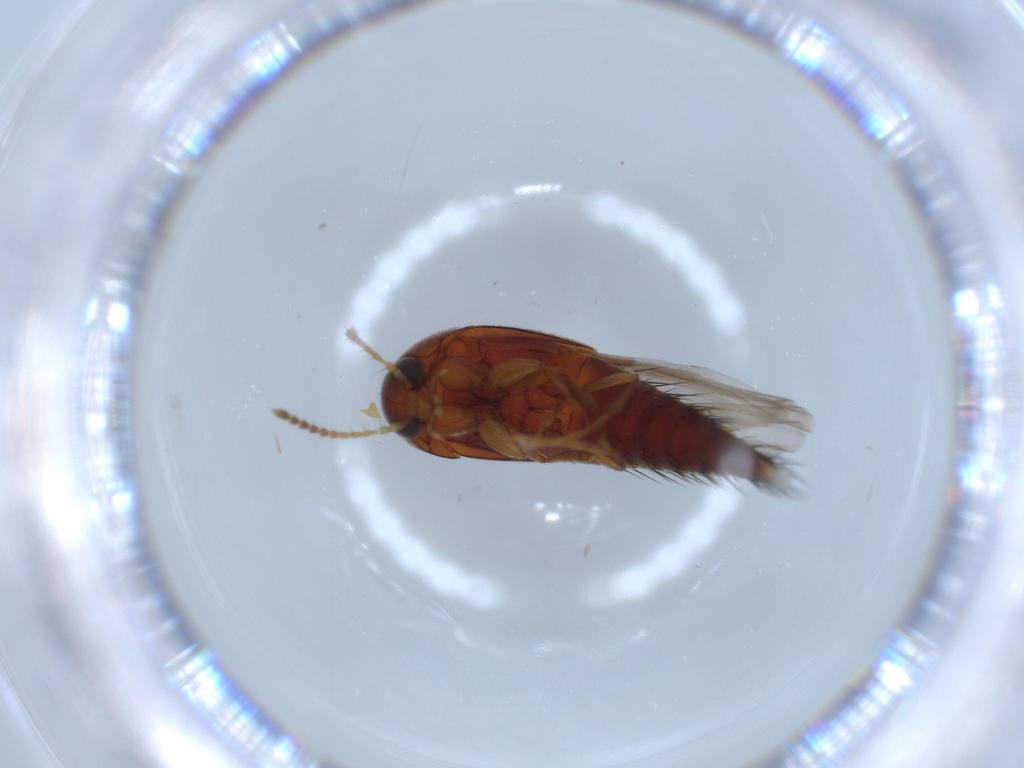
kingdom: Animalia
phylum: Arthropoda
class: Insecta
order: Coleoptera
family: Staphylinidae
